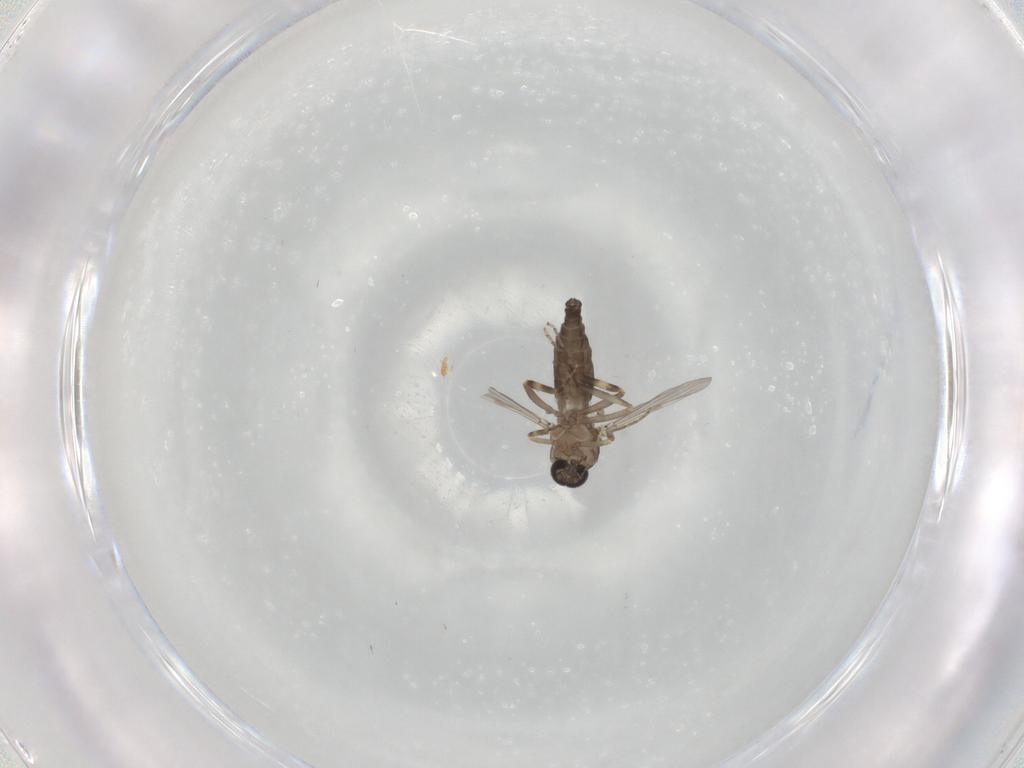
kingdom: Animalia
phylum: Arthropoda
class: Insecta
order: Diptera
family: Ceratopogonidae
